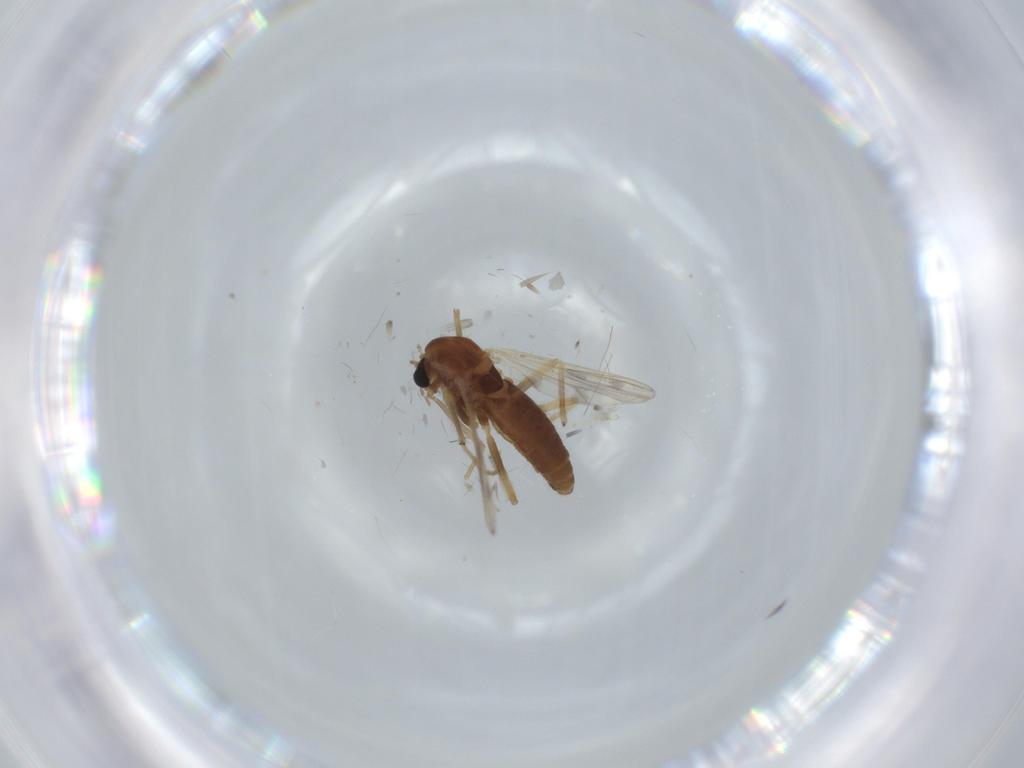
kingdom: Animalia
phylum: Arthropoda
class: Insecta
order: Diptera
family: Chironomidae
